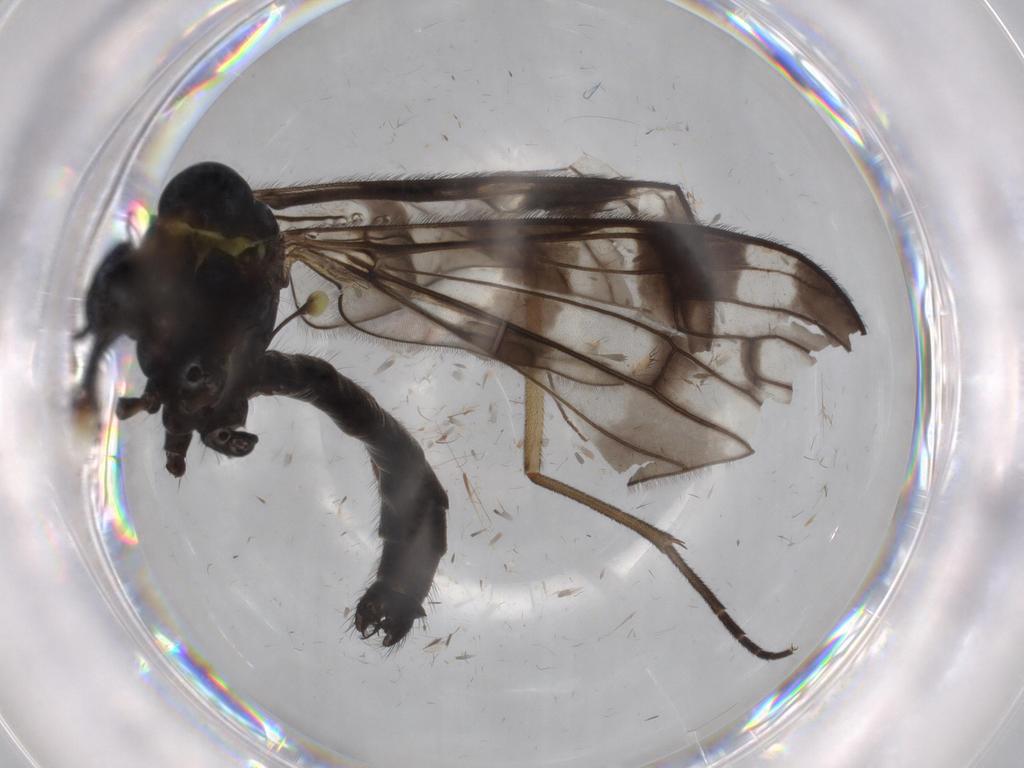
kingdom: Animalia
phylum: Arthropoda
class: Insecta
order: Diptera
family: Limoniidae
